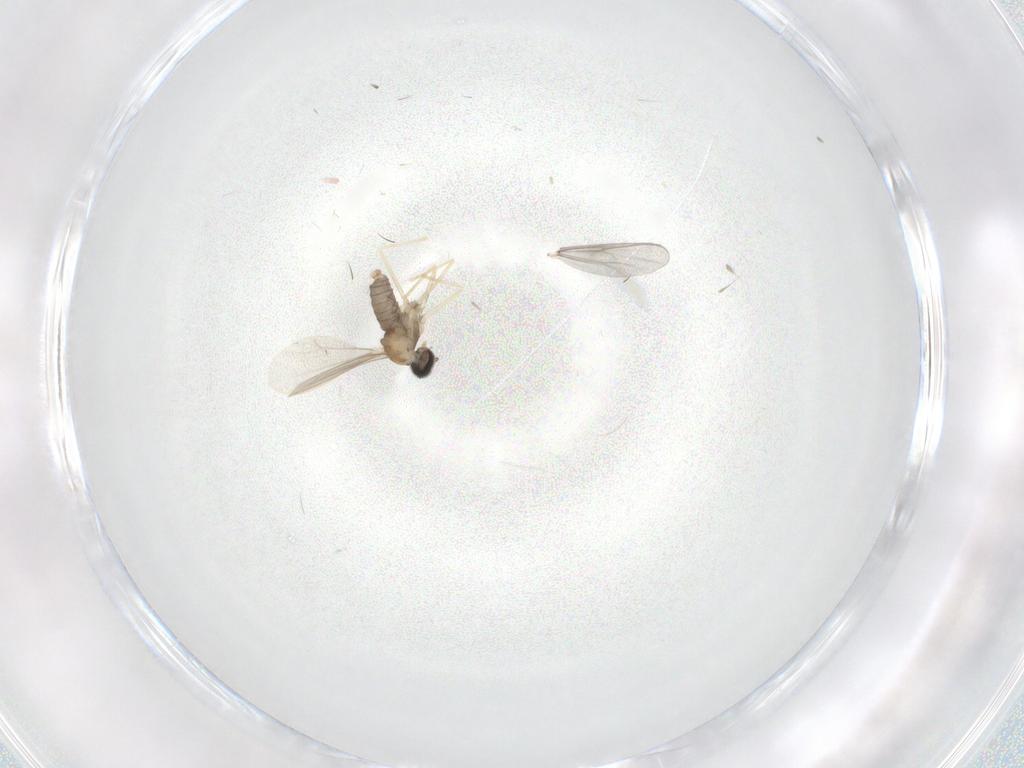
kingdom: Animalia
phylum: Arthropoda
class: Insecta
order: Diptera
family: Cecidomyiidae
